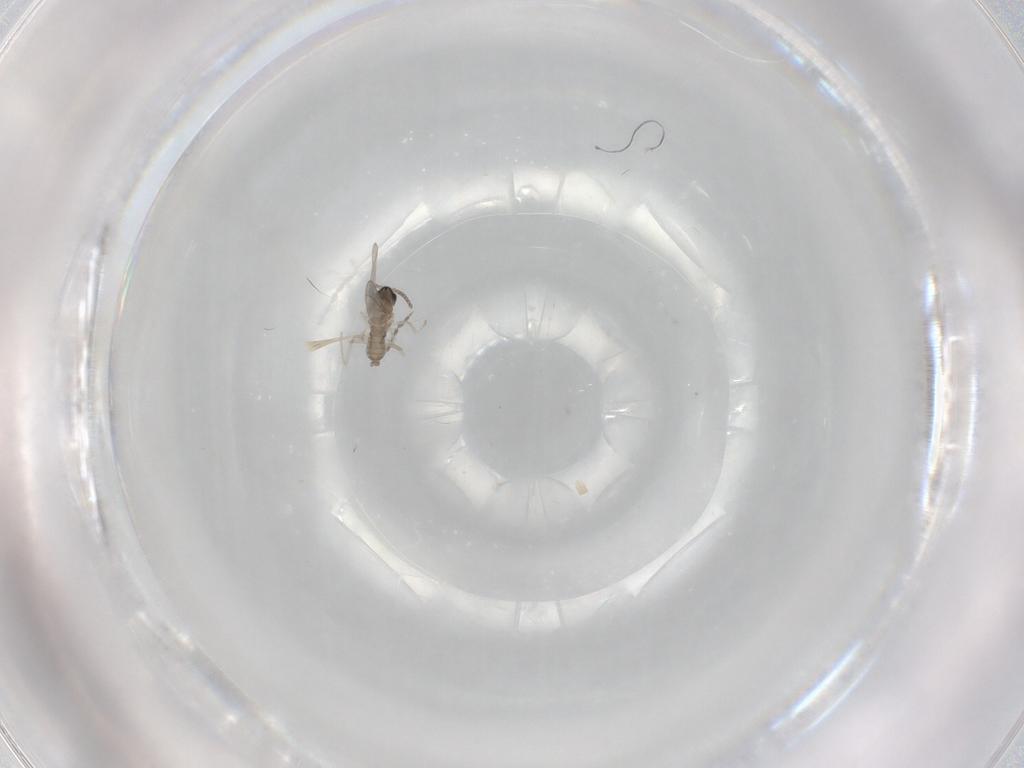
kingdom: Animalia
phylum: Arthropoda
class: Insecta
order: Diptera
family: Cecidomyiidae
